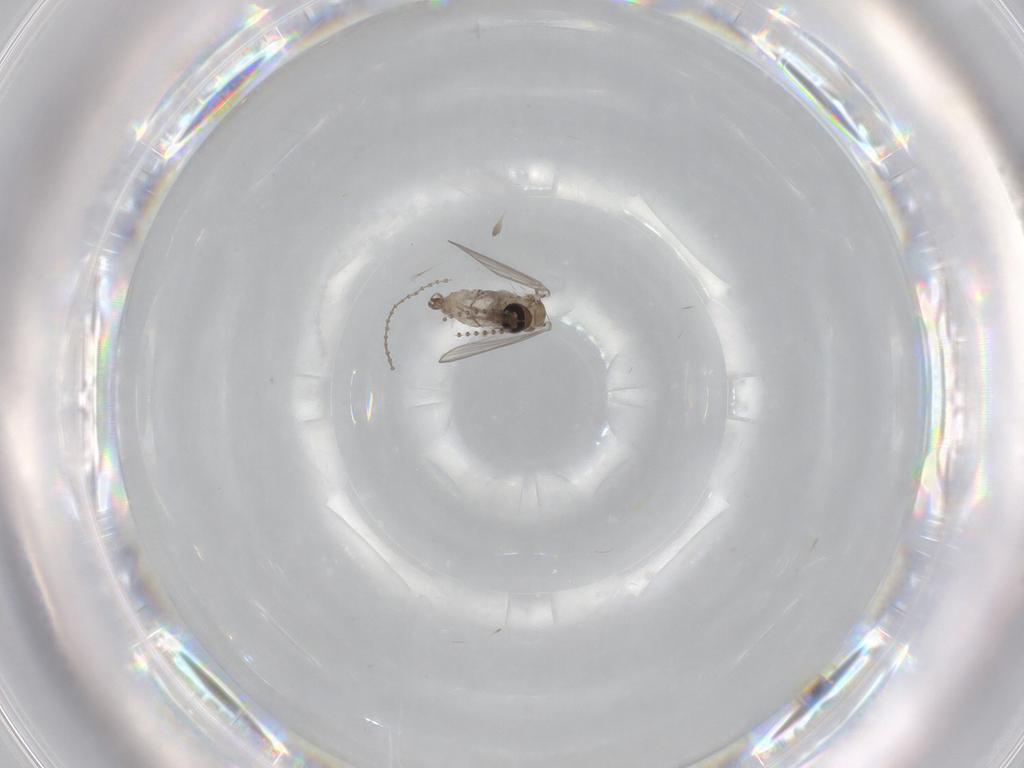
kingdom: Animalia
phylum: Arthropoda
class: Insecta
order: Diptera
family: Psychodidae
